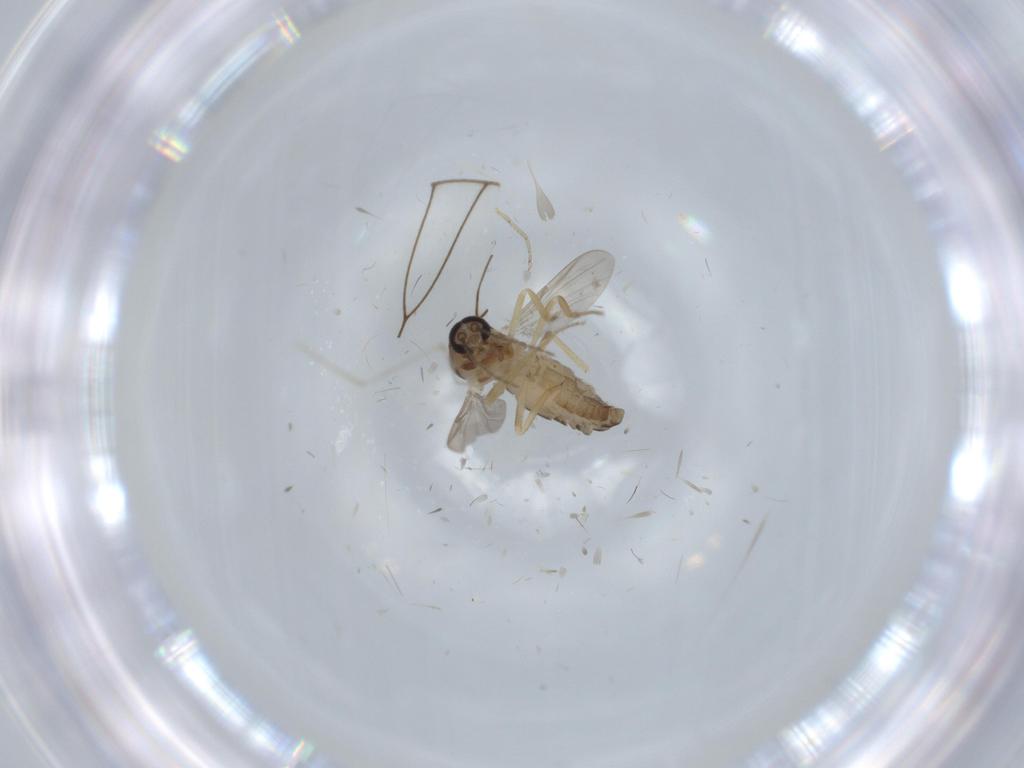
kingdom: Animalia
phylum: Arthropoda
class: Insecta
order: Diptera
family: Ceratopogonidae
